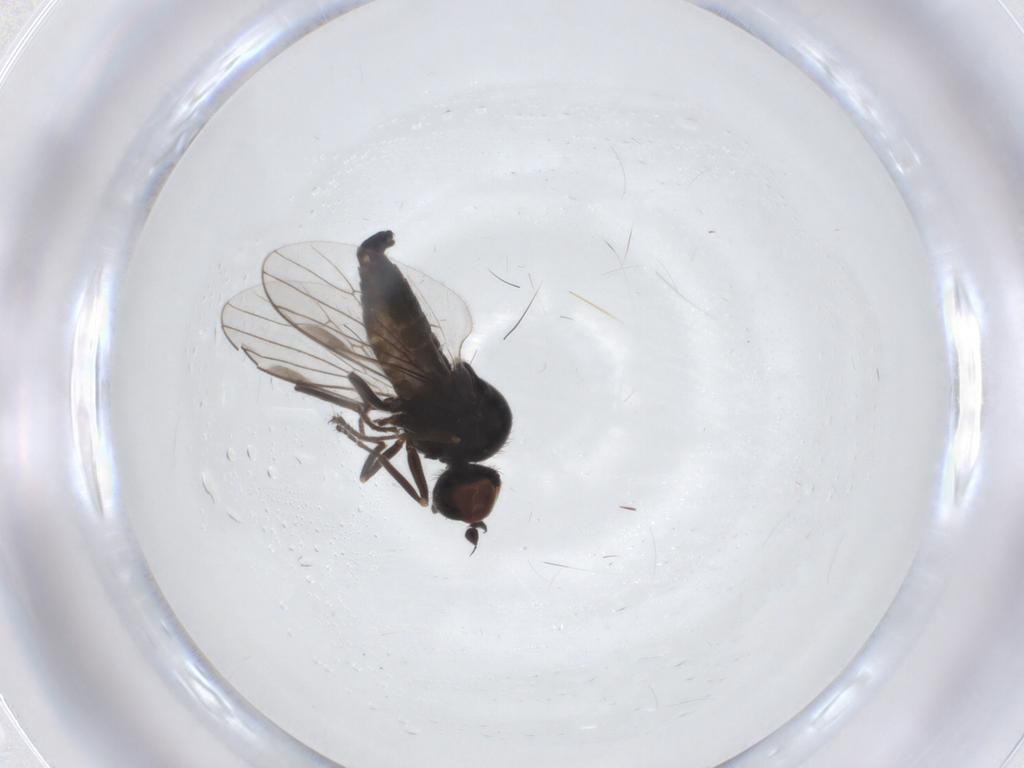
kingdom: Animalia
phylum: Arthropoda
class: Insecta
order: Diptera
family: Hybotidae
